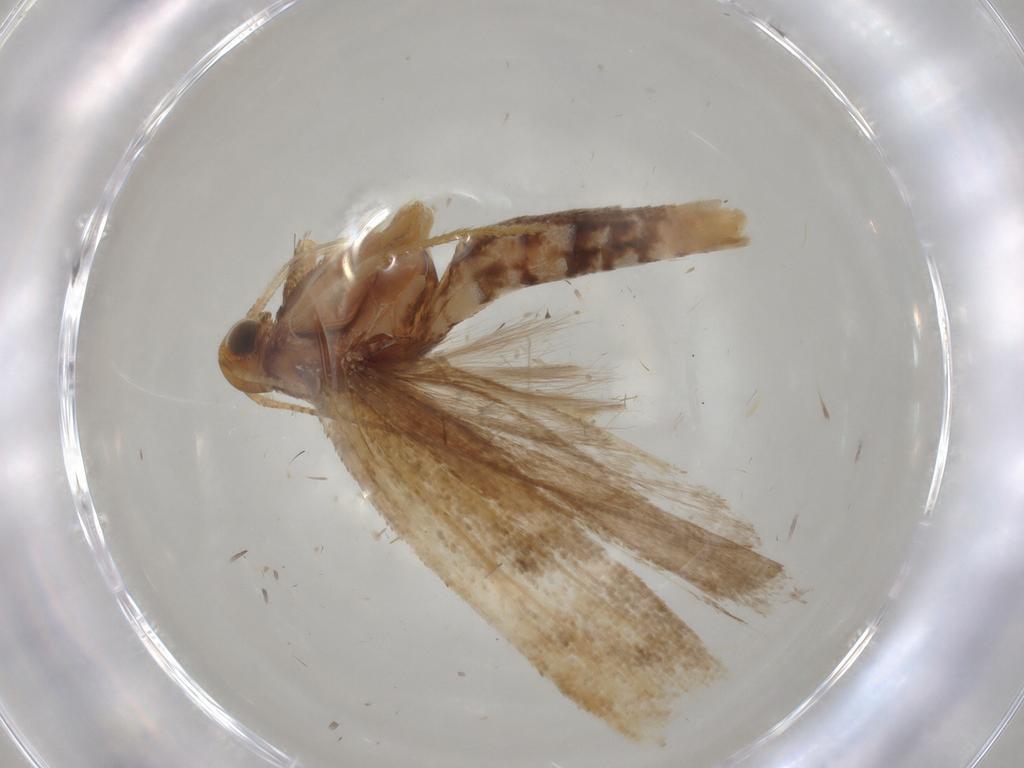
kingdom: Animalia
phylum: Arthropoda
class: Insecta
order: Lepidoptera
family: Gelechiidae
